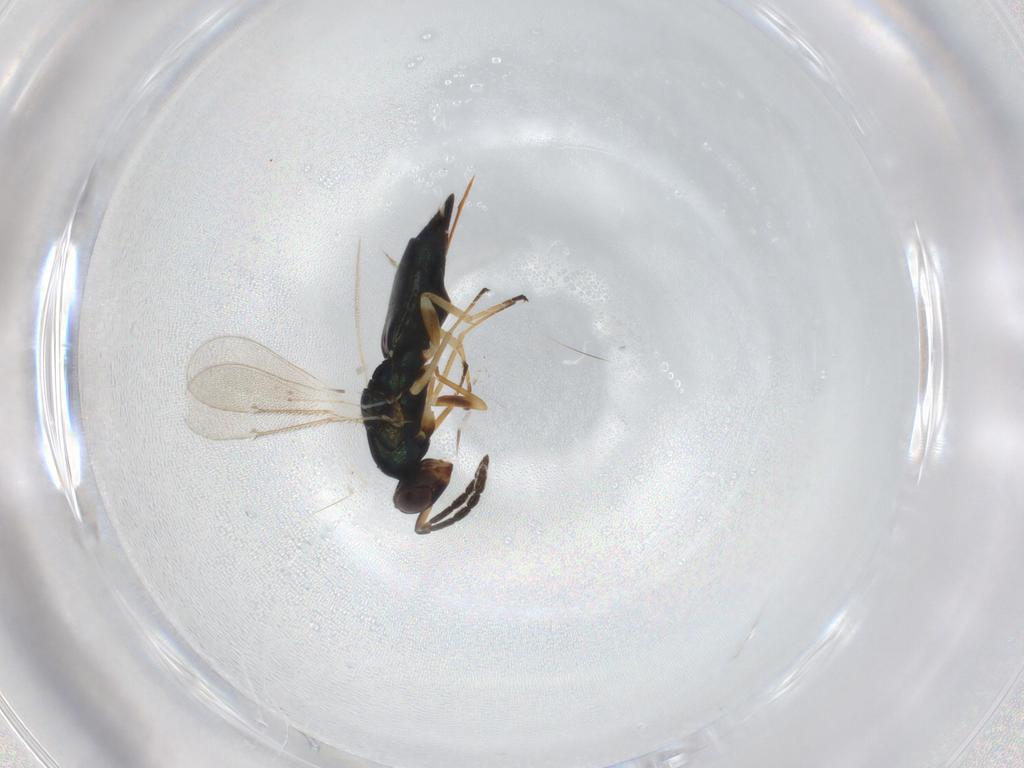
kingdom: Animalia
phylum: Arthropoda
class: Insecta
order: Hymenoptera
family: Eulophidae
